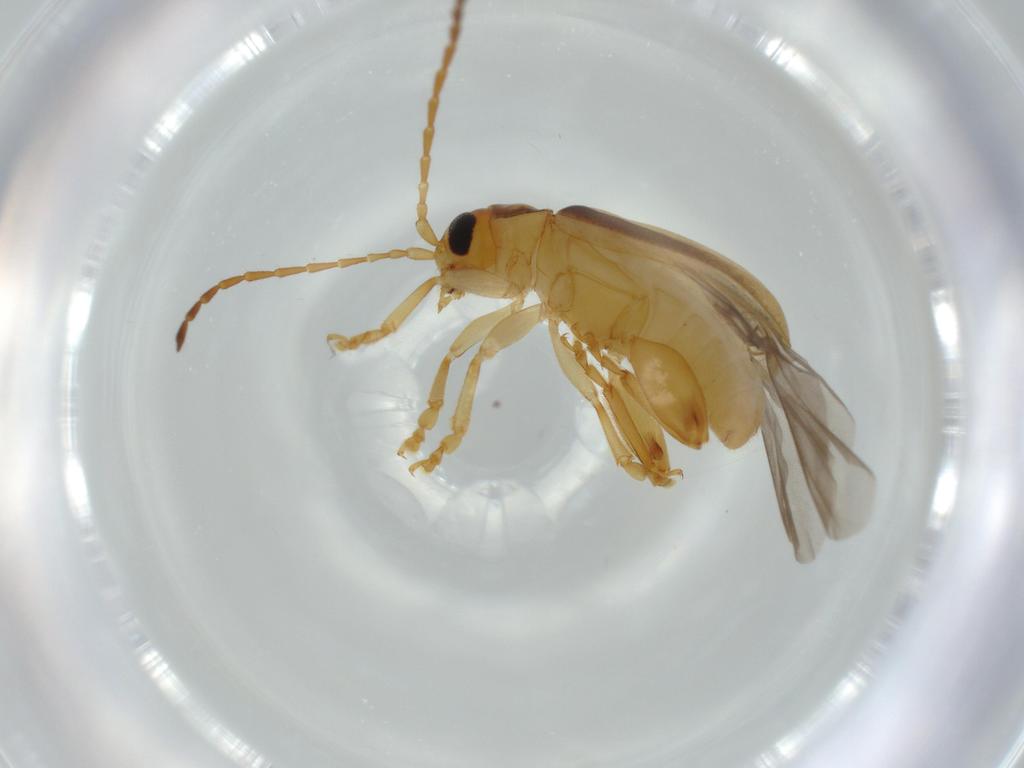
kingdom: Animalia
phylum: Arthropoda
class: Insecta
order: Coleoptera
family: Chrysomelidae
